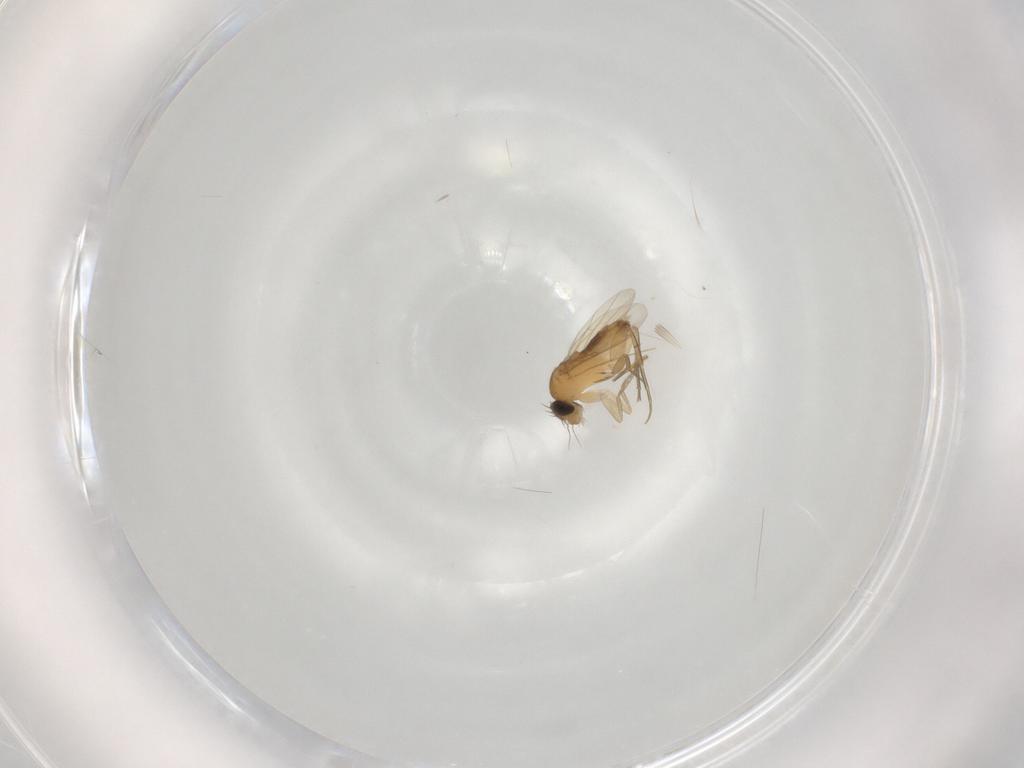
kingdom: Animalia
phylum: Arthropoda
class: Insecta
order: Diptera
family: Phoridae
